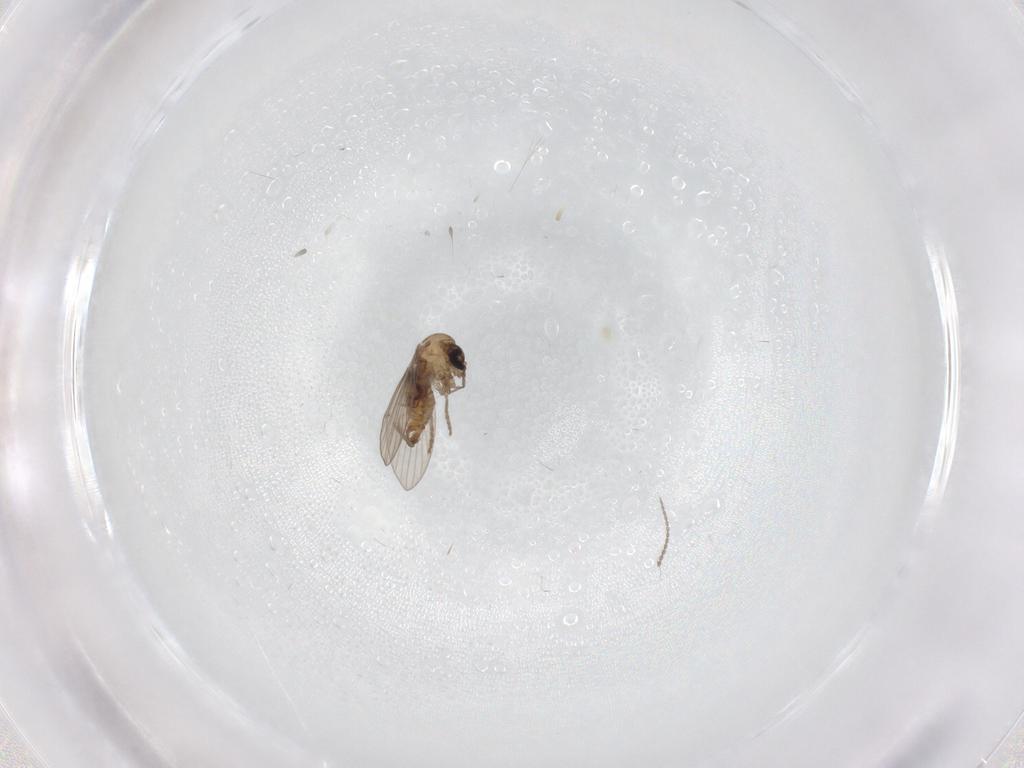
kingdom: Animalia
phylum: Arthropoda
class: Insecta
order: Diptera
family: Psychodidae
